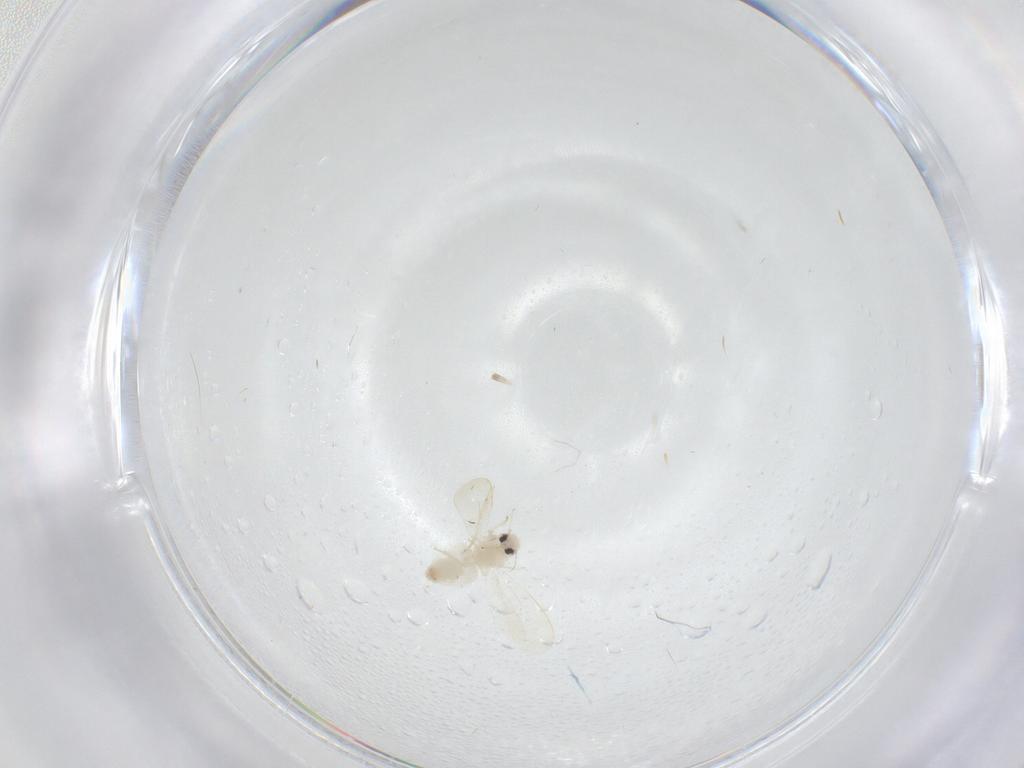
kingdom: Animalia
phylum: Arthropoda
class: Insecta
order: Hemiptera
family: Aleyrodidae
